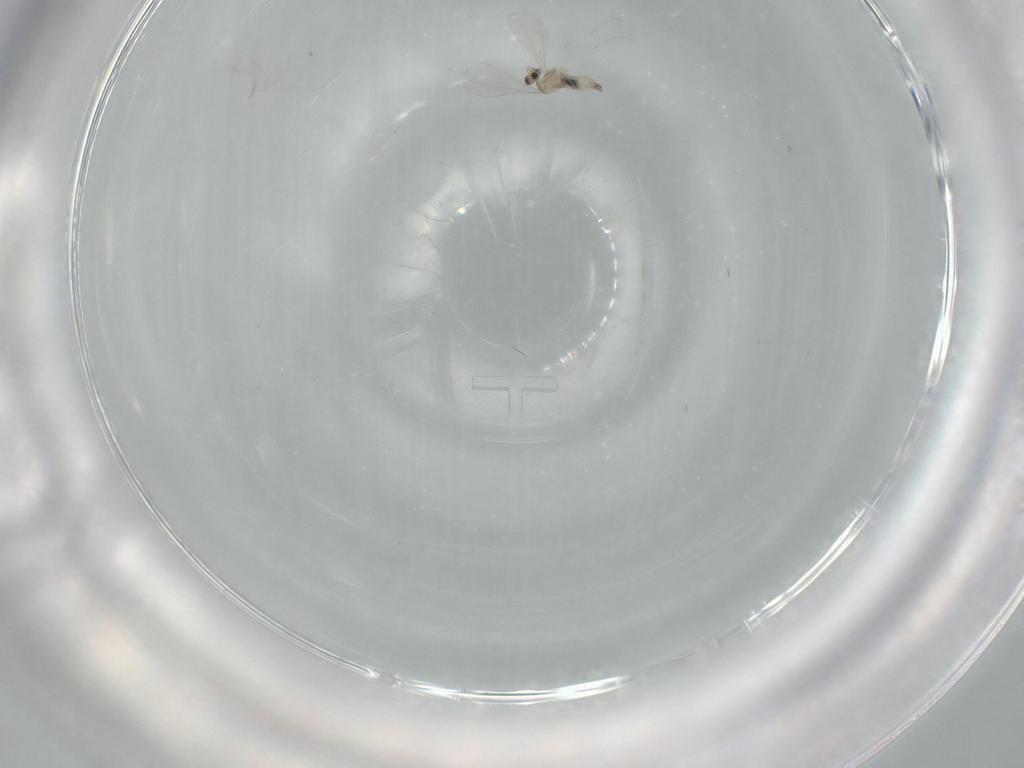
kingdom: Animalia
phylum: Arthropoda
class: Insecta
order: Diptera
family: Cecidomyiidae
